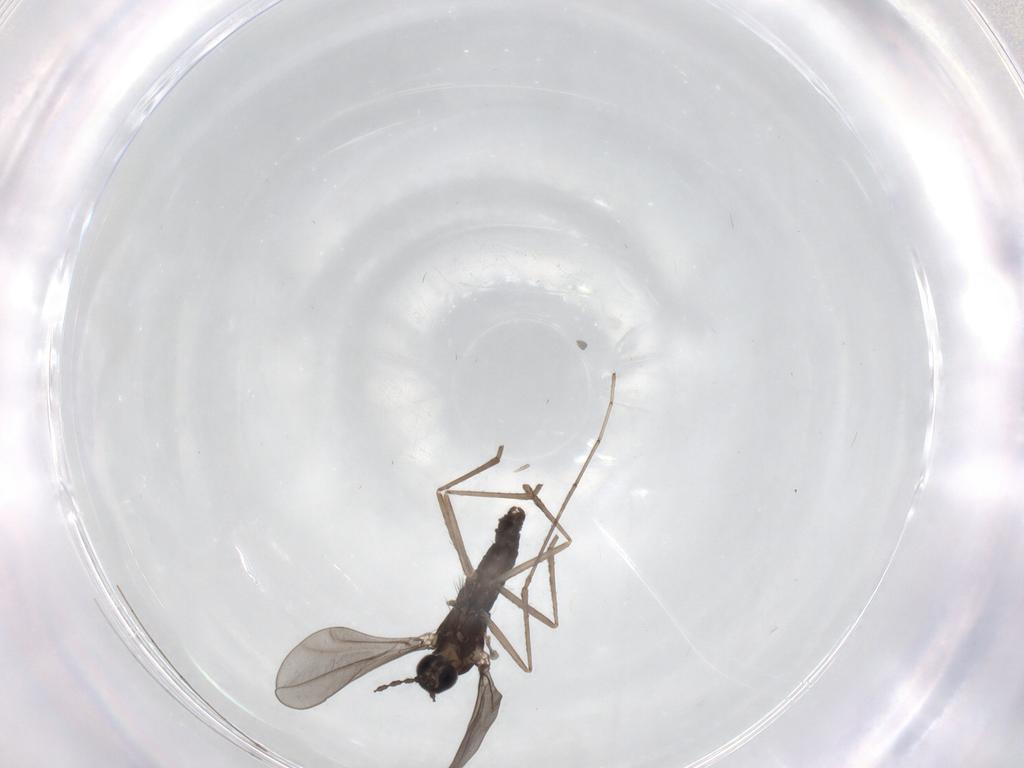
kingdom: Animalia
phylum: Arthropoda
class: Insecta
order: Diptera
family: Cecidomyiidae
